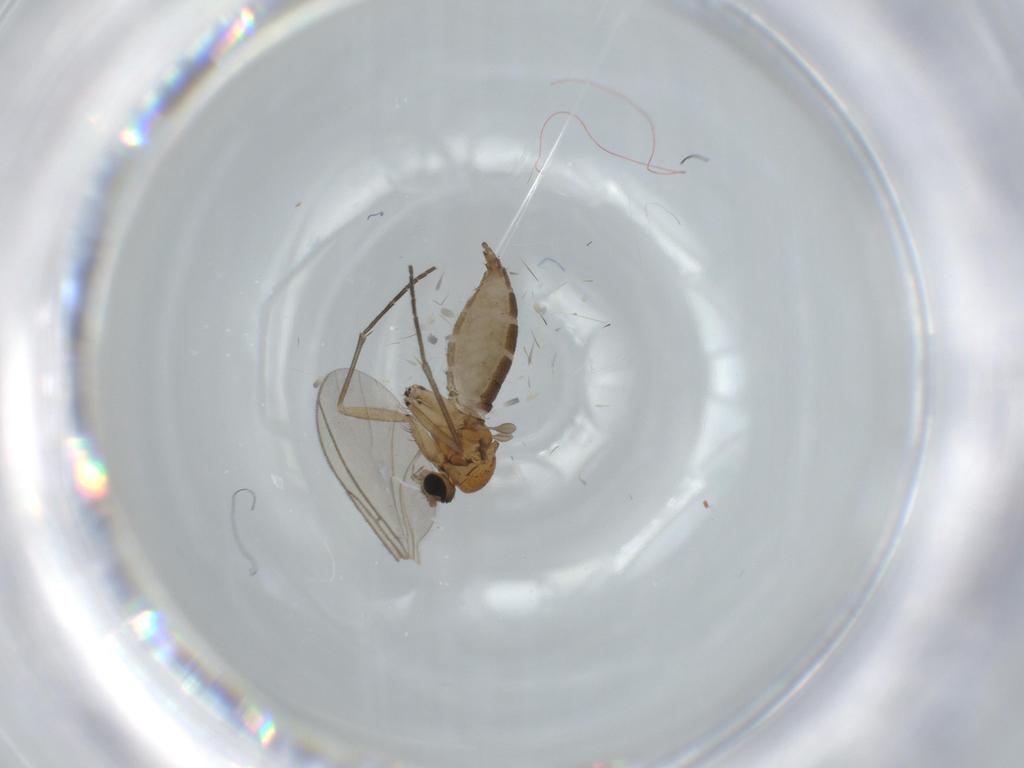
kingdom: Animalia
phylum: Arthropoda
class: Insecta
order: Diptera
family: Sciaridae
